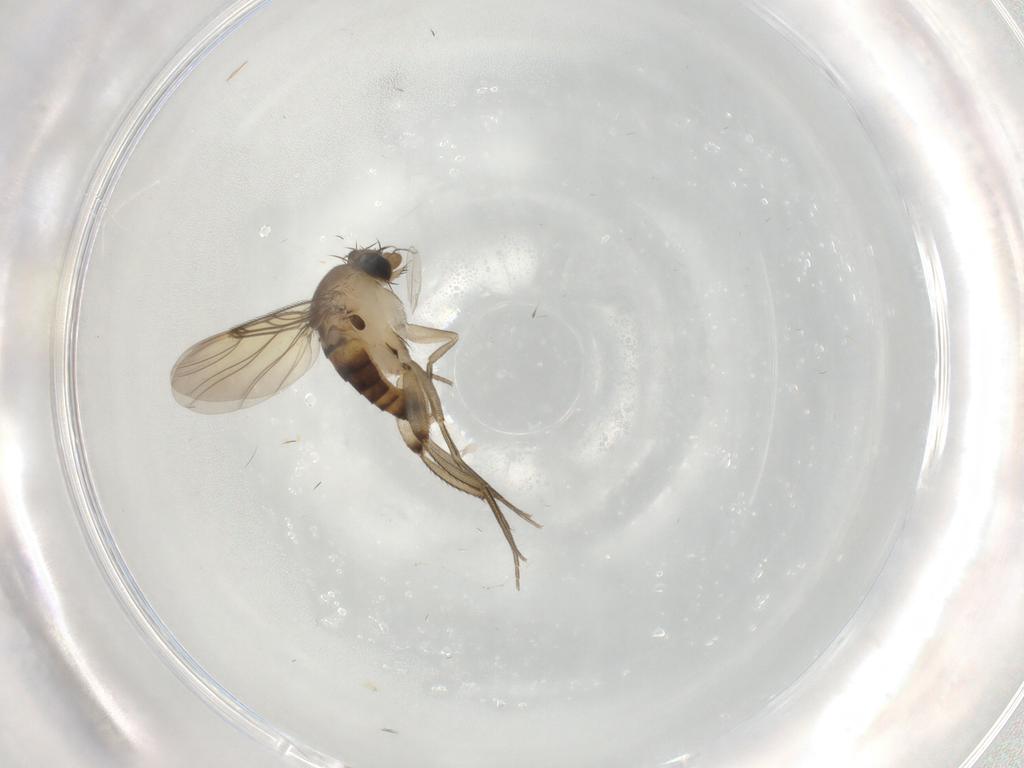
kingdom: Animalia
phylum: Arthropoda
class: Insecta
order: Diptera
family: Phoridae
